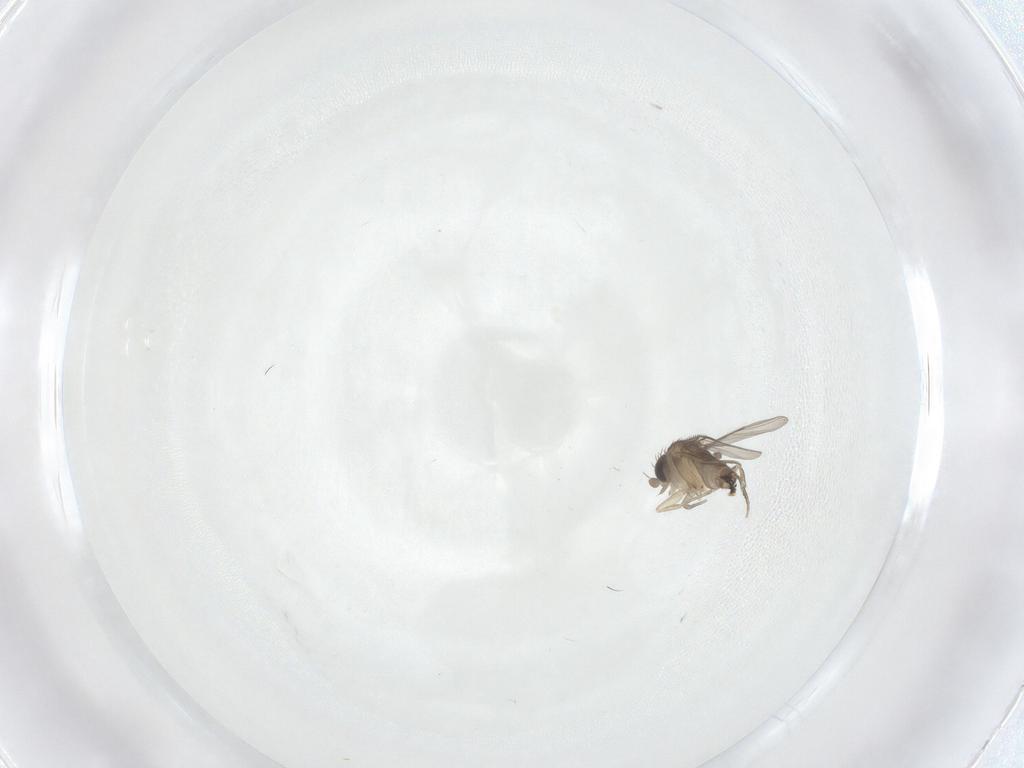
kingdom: Animalia
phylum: Arthropoda
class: Insecta
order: Diptera
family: Phoridae
